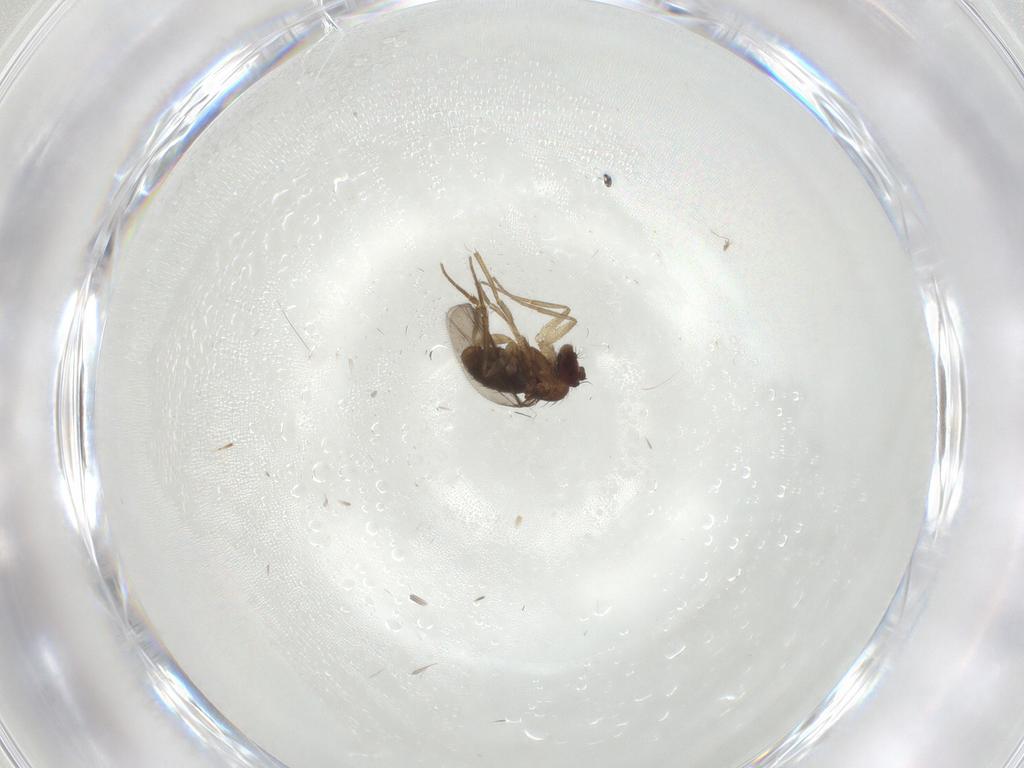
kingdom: Animalia
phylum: Arthropoda
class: Insecta
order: Diptera
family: Dolichopodidae
